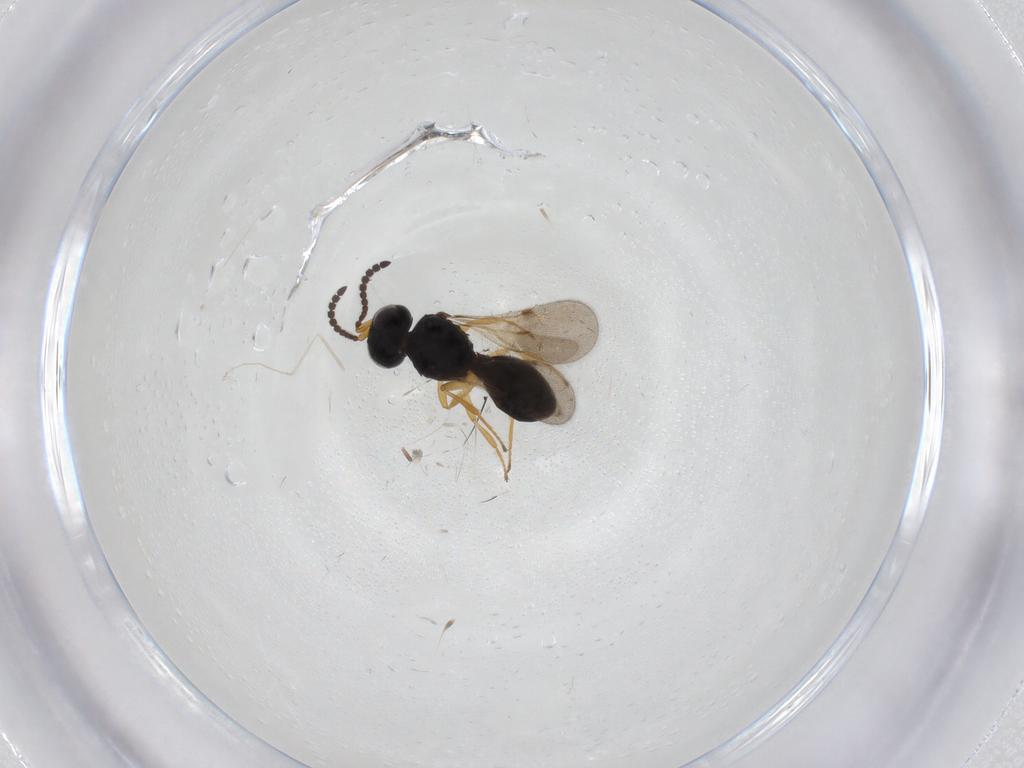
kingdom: Animalia
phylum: Arthropoda
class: Insecta
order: Hymenoptera
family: Scelionidae
